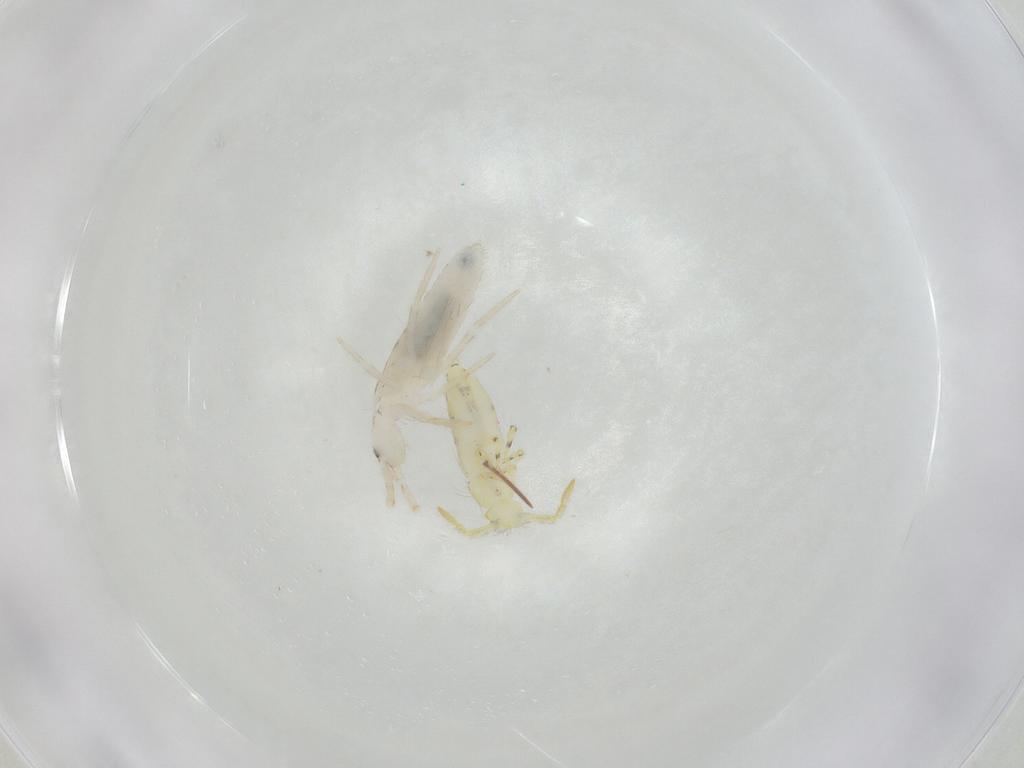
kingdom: Animalia
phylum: Arthropoda
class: Collembola
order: Entomobryomorpha
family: Entomobryidae
